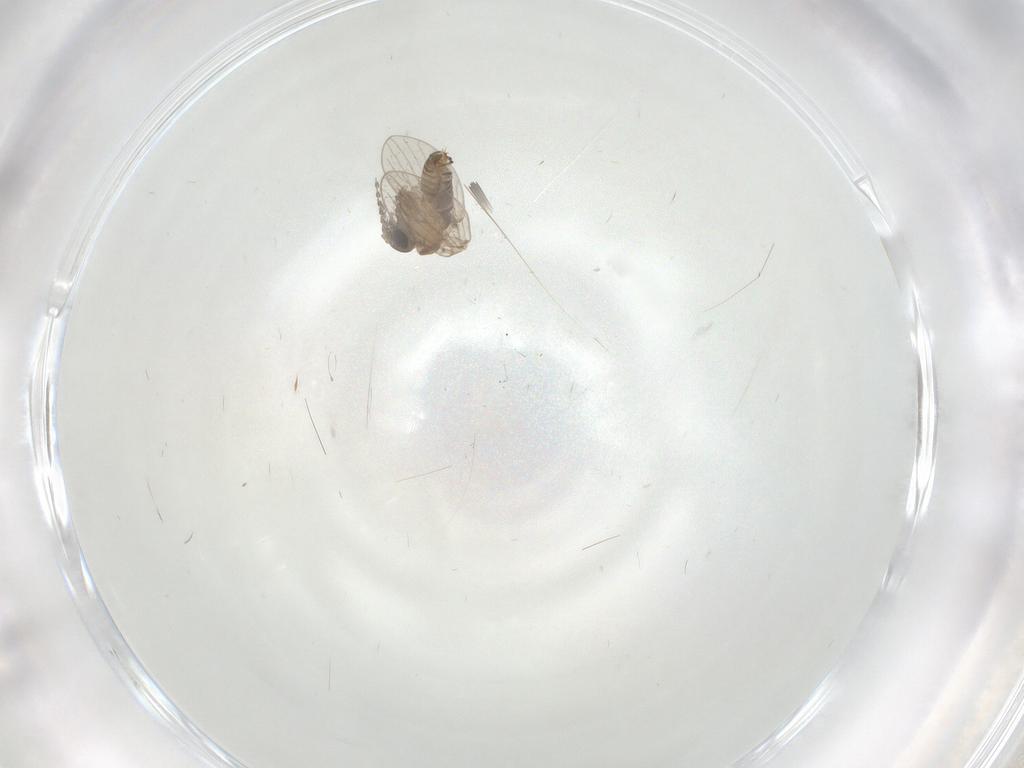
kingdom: Animalia
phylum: Arthropoda
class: Insecta
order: Diptera
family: Psychodidae
